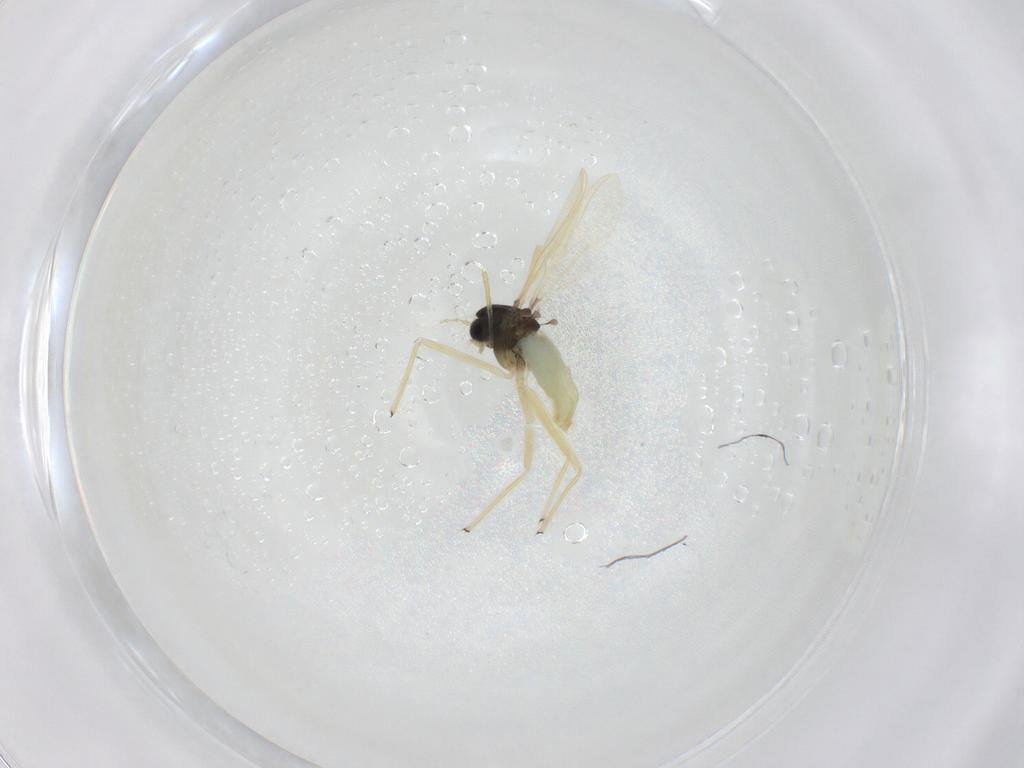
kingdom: Animalia
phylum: Arthropoda
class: Insecta
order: Diptera
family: Chironomidae
